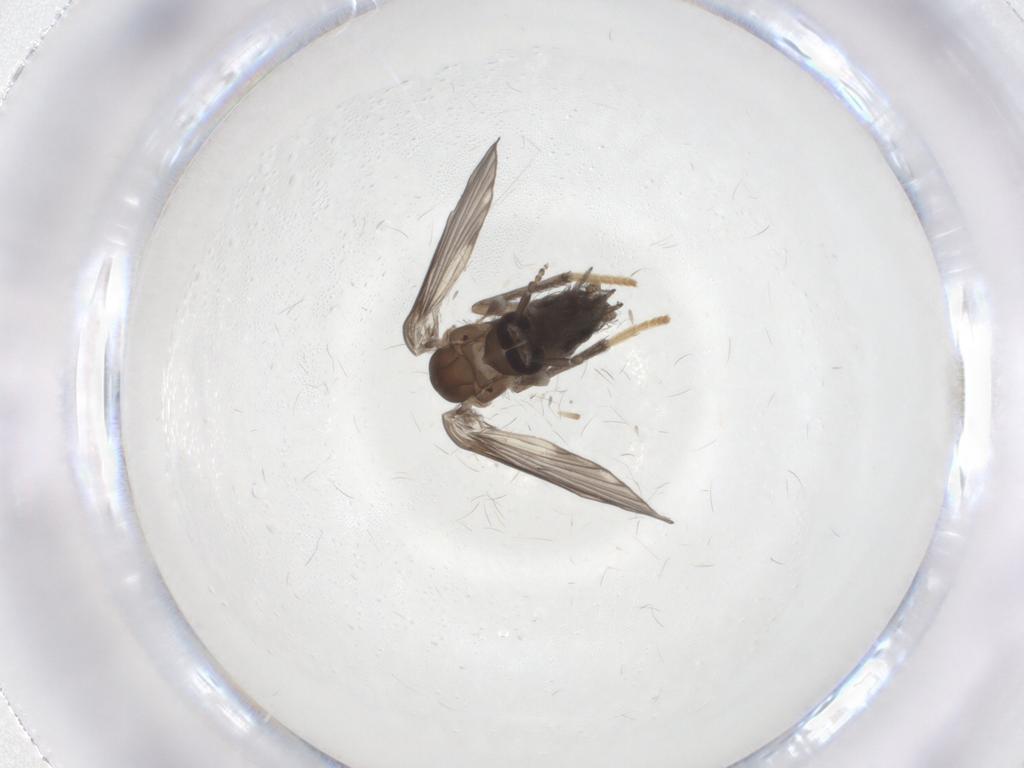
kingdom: Animalia
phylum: Arthropoda
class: Insecta
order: Diptera
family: Psychodidae
